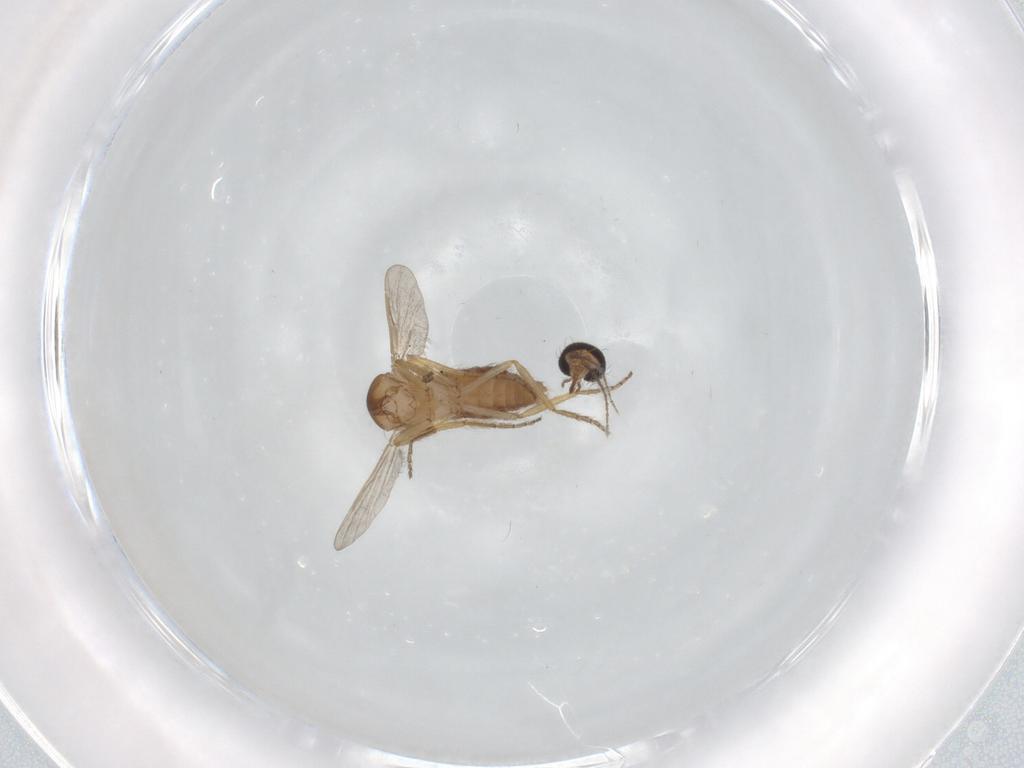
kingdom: Animalia
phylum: Arthropoda
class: Insecta
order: Diptera
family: Ceratopogonidae
